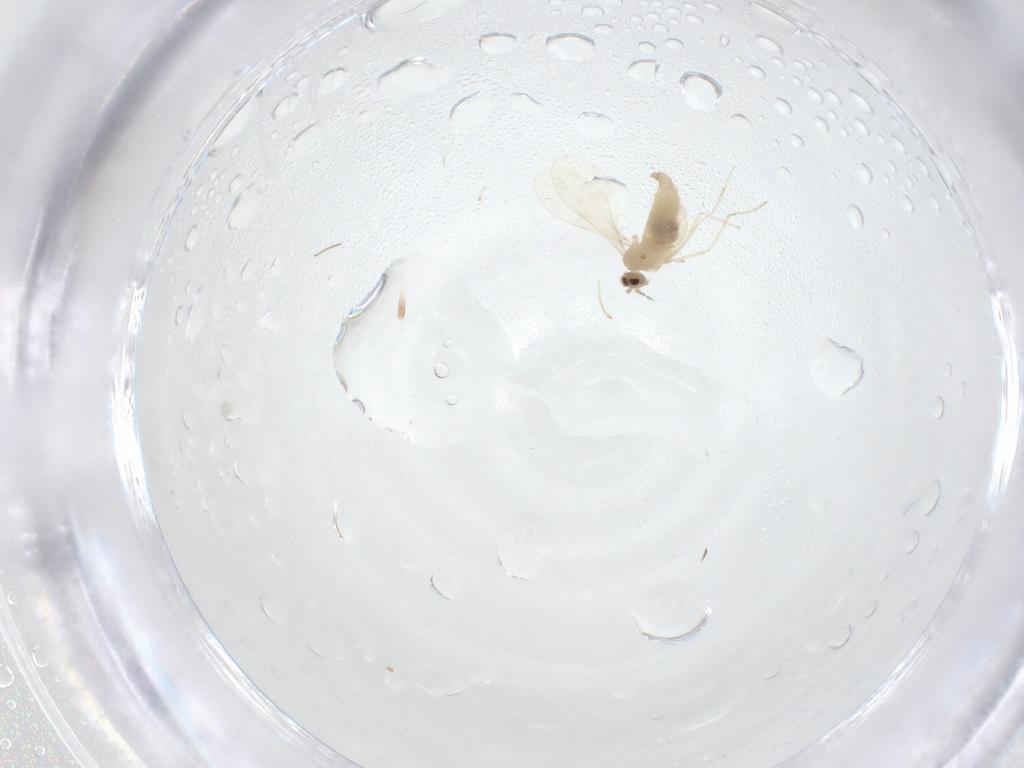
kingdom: Animalia
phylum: Arthropoda
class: Insecta
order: Diptera
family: Cecidomyiidae
